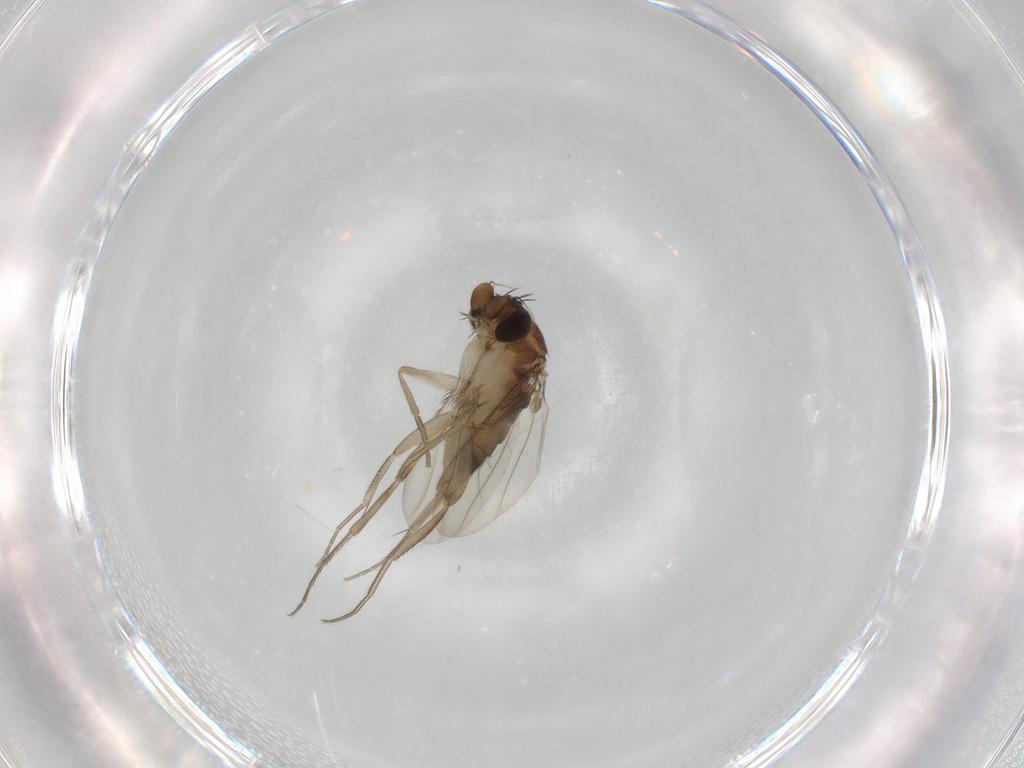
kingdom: Animalia
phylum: Arthropoda
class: Insecta
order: Diptera
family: Phoridae
